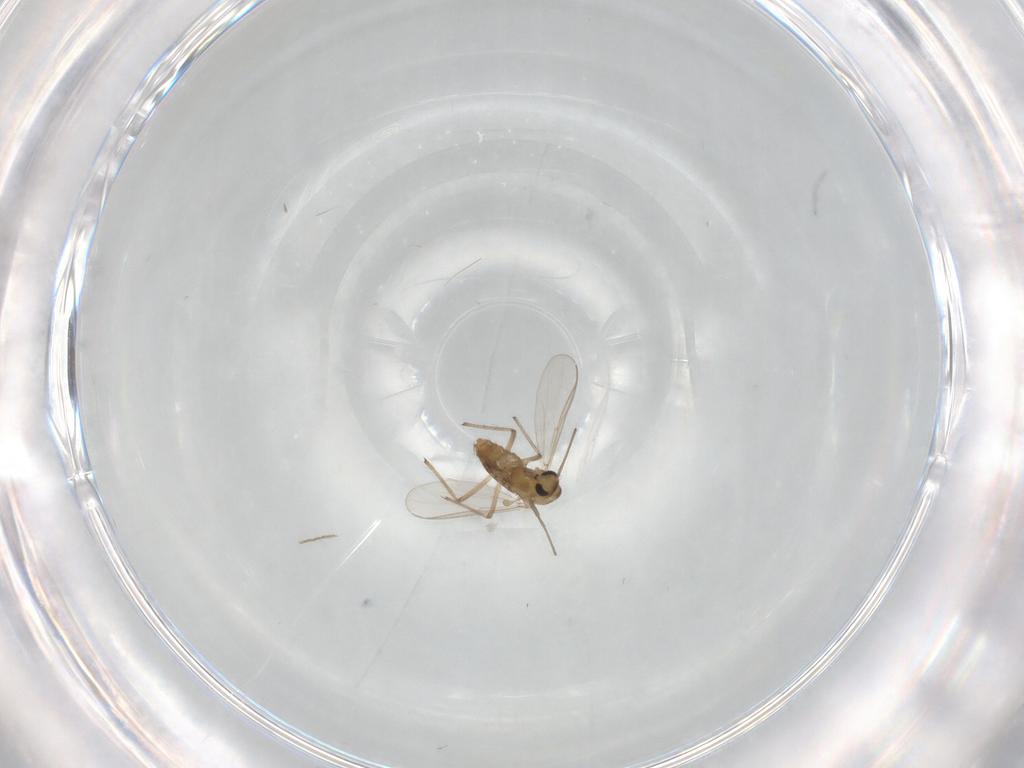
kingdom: Animalia
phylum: Arthropoda
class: Insecta
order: Diptera
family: Chironomidae
